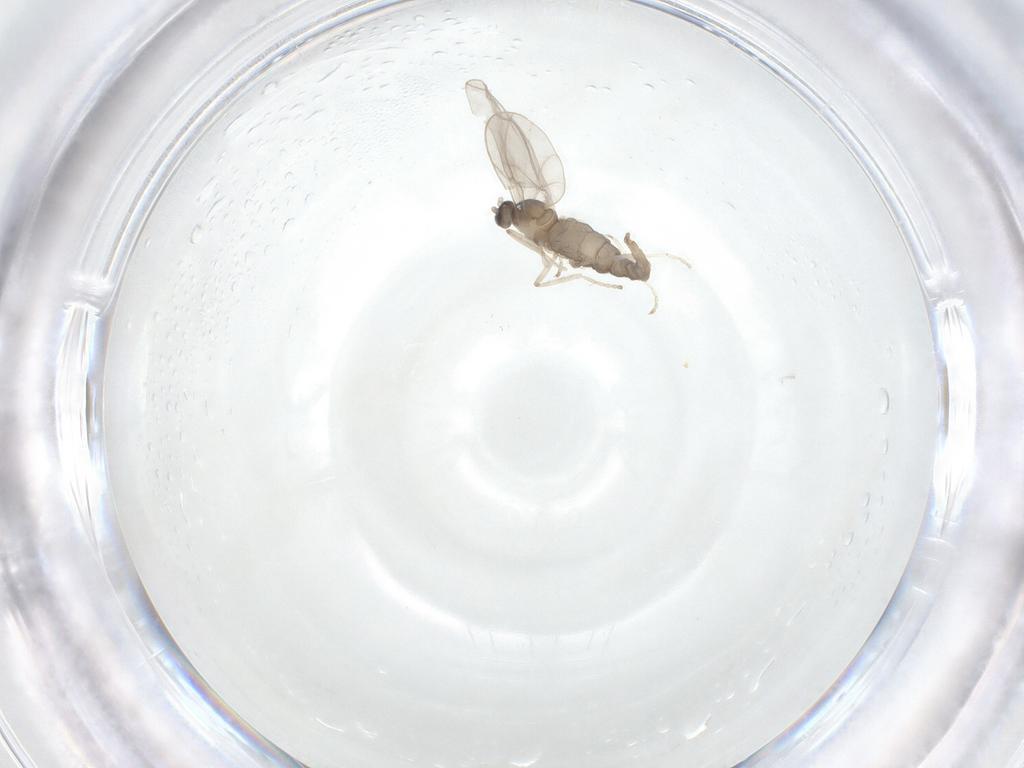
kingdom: Animalia
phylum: Arthropoda
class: Insecta
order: Diptera
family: Cecidomyiidae
